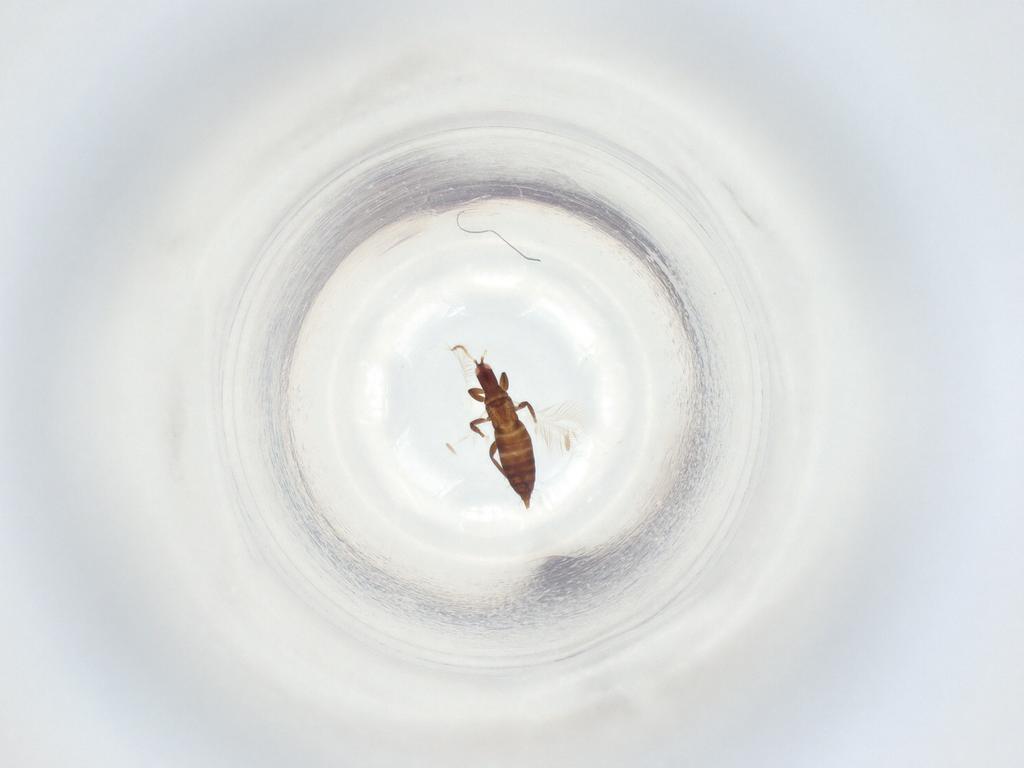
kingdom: Animalia
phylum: Arthropoda
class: Insecta
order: Thysanoptera
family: Phlaeothripidae
